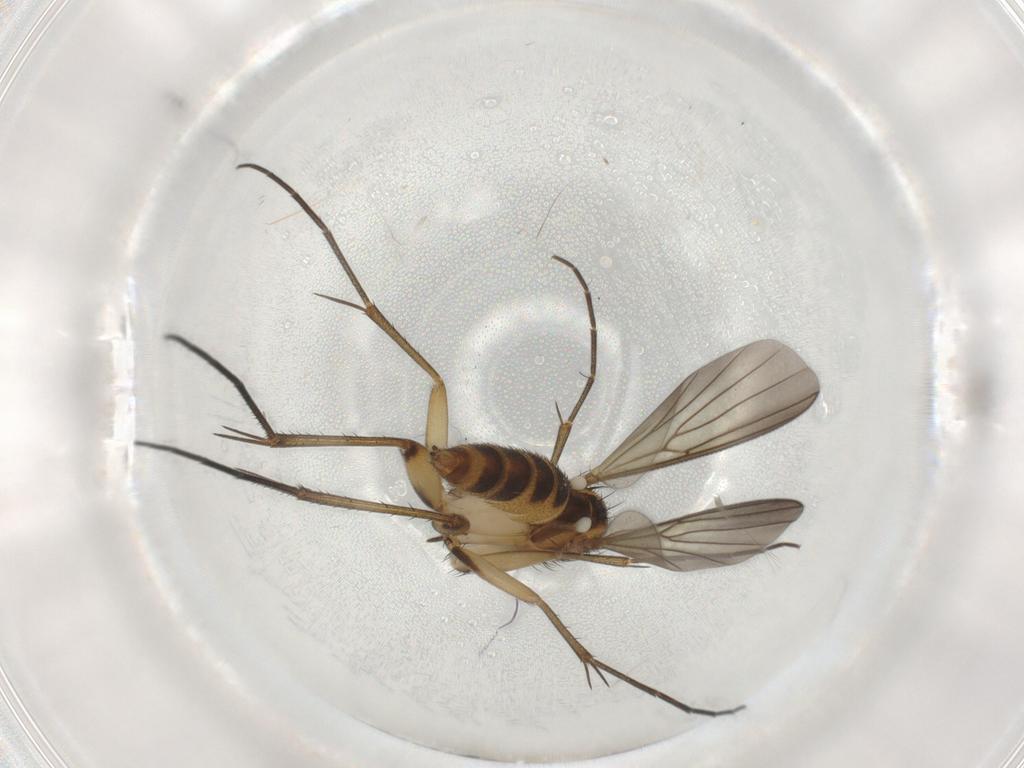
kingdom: Animalia
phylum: Arthropoda
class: Insecta
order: Diptera
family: Mycetophilidae
